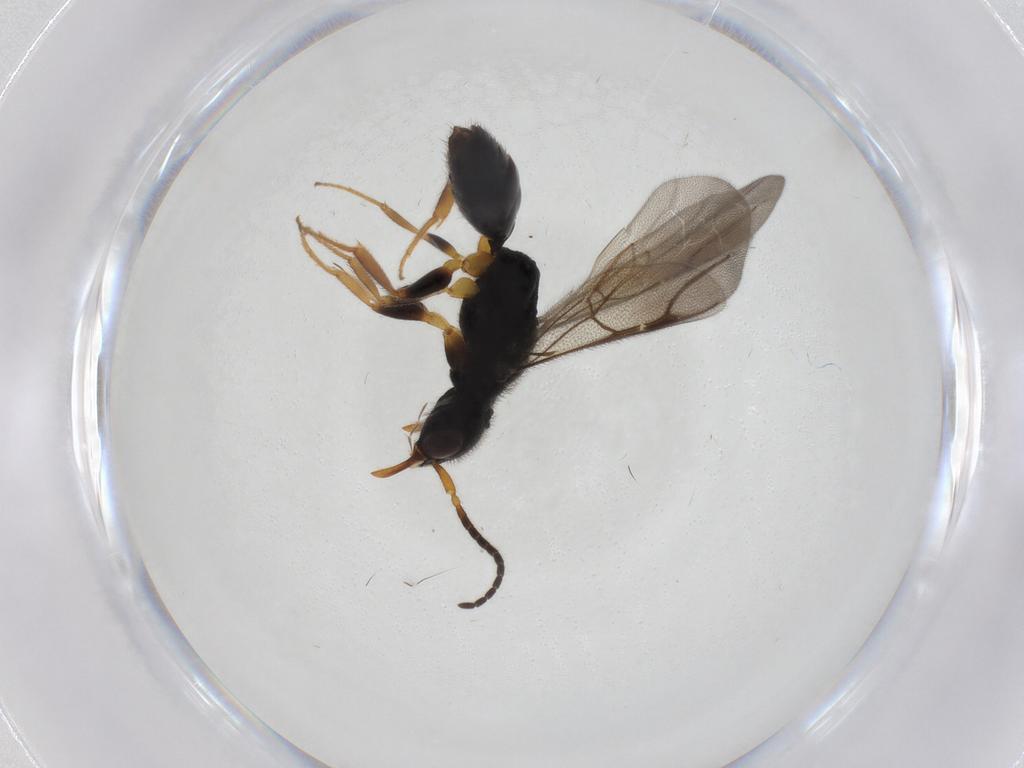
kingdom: Animalia
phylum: Arthropoda
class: Insecta
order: Hymenoptera
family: Bethylidae
